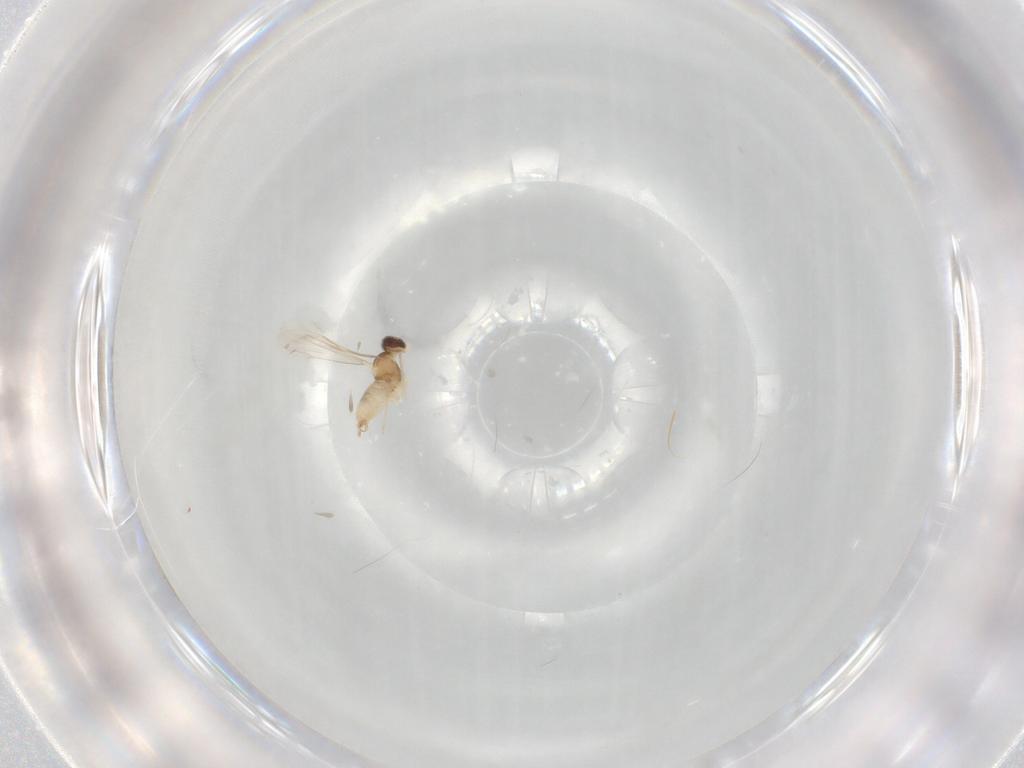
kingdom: Animalia
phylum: Arthropoda
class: Insecta
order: Diptera
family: Cecidomyiidae
